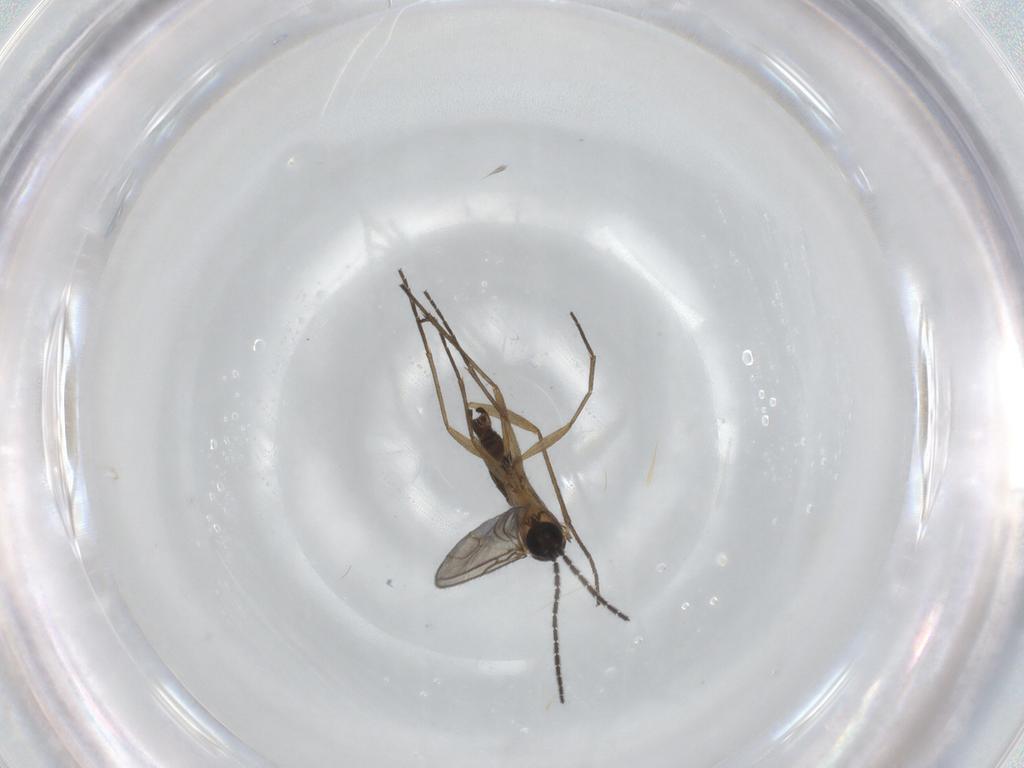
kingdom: Animalia
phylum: Arthropoda
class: Insecta
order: Diptera
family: Sciaridae
